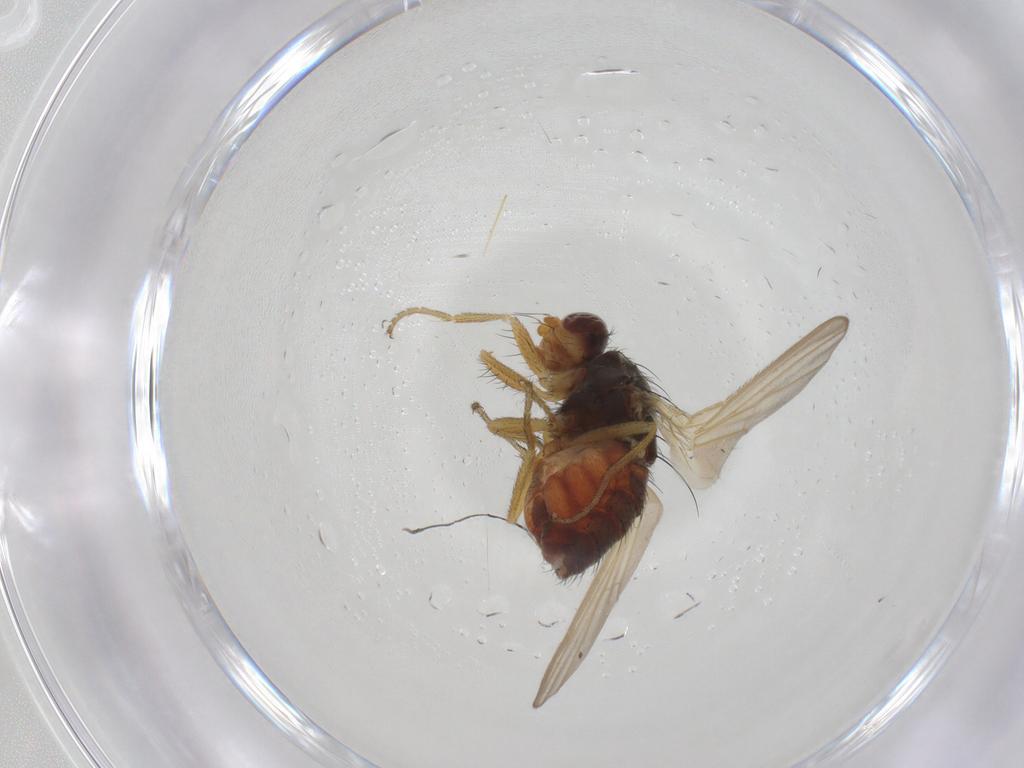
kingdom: Animalia
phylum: Arthropoda
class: Insecta
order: Diptera
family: Heleomyzidae
